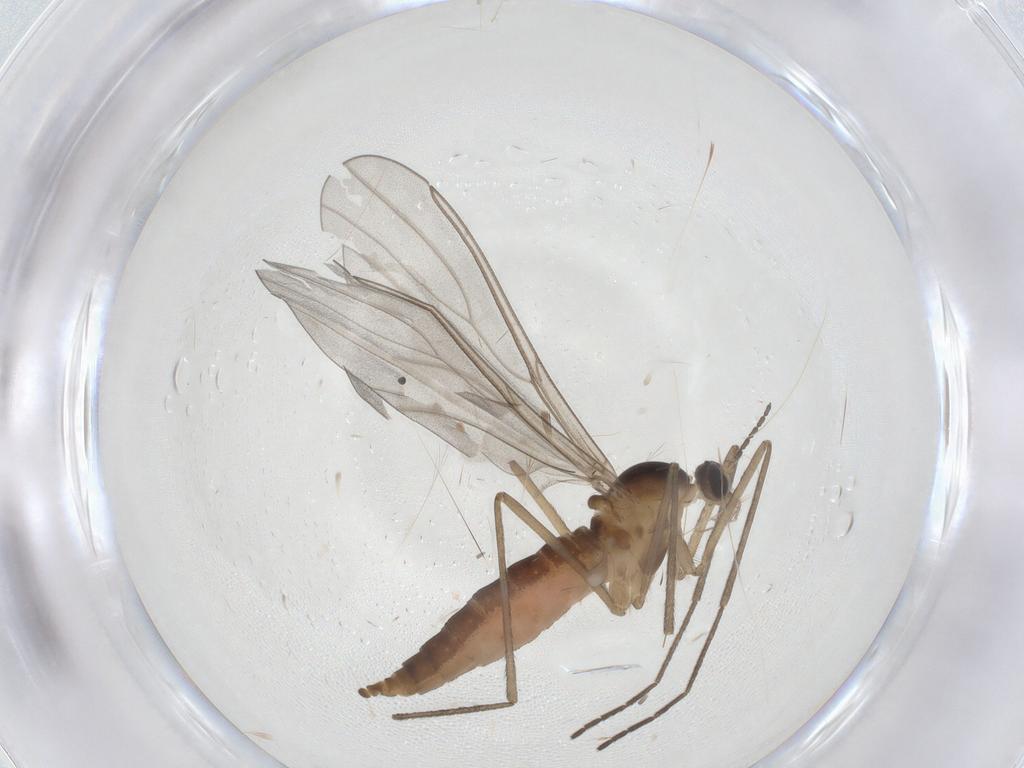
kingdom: Animalia
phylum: Arthropoda
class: Insecta
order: Diptera
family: Cecidomyiidae
